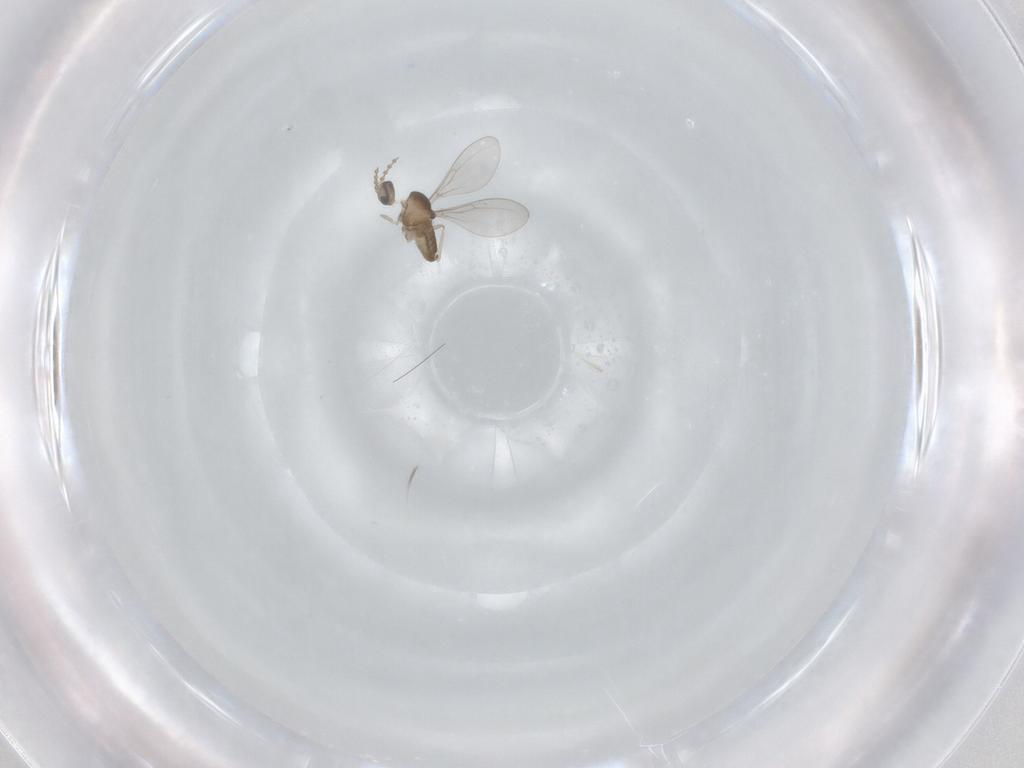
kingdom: Animalia
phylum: Arthropoda
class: Insecta
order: Diptera
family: Cecidomyiidae
